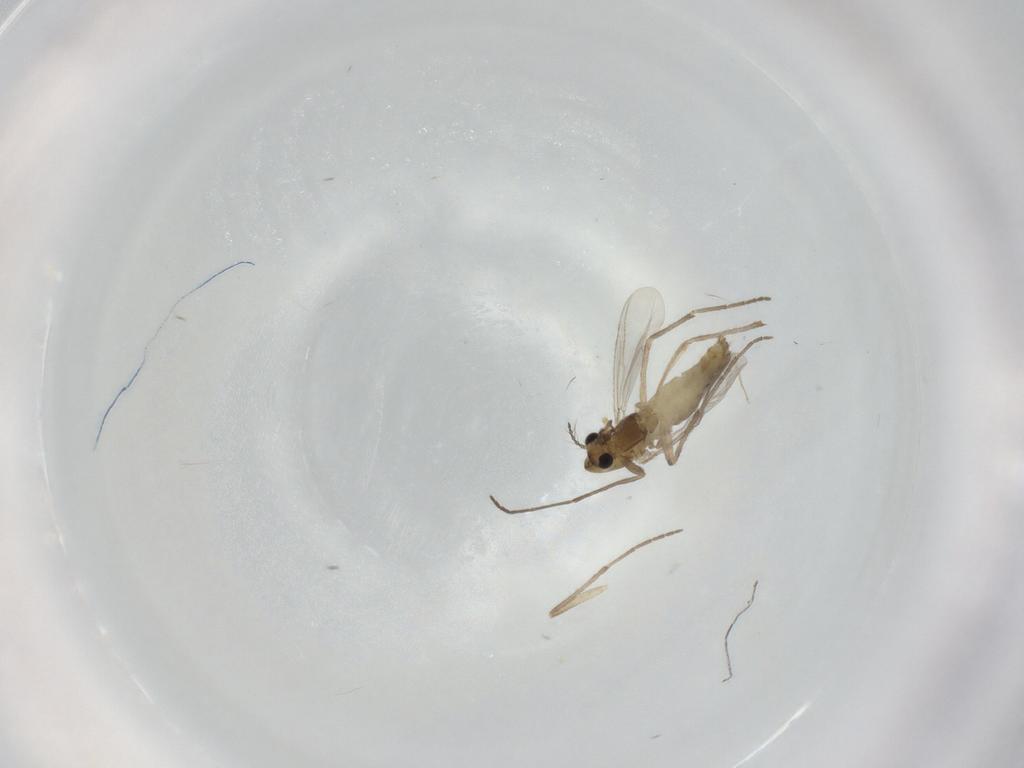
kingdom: Animalia
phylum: Arthropoda
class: Insecta
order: Diptera
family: Chironomidae
